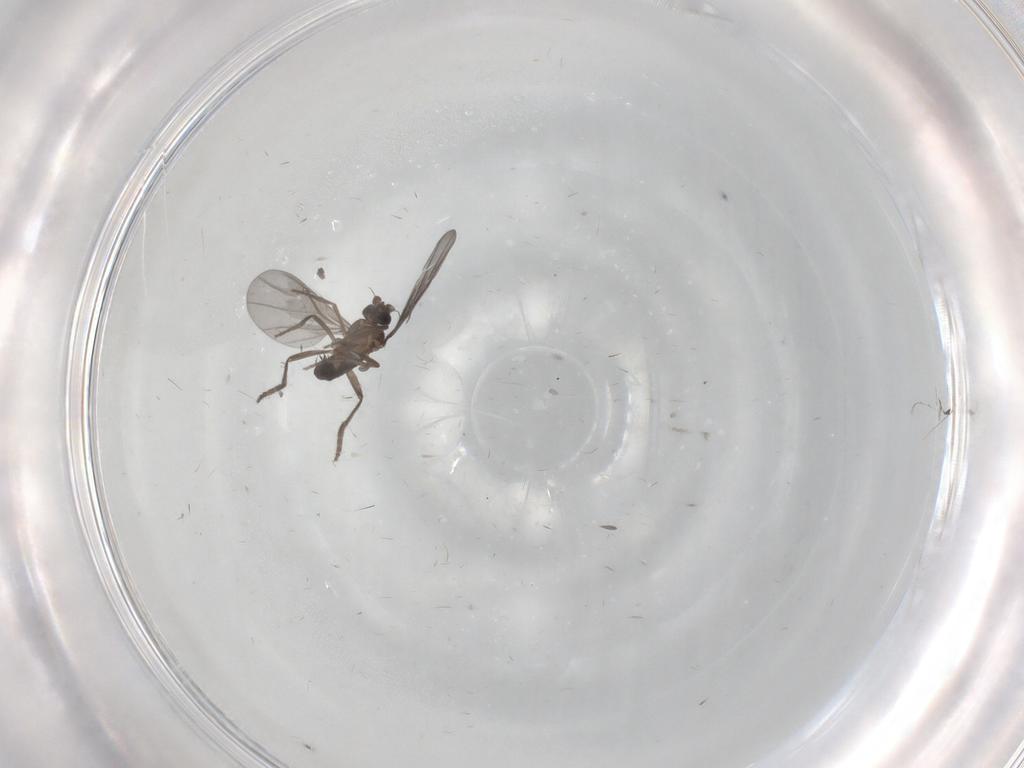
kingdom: Animalia
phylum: Arthropoda
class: Insecta
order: Diptera
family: Phoridae
